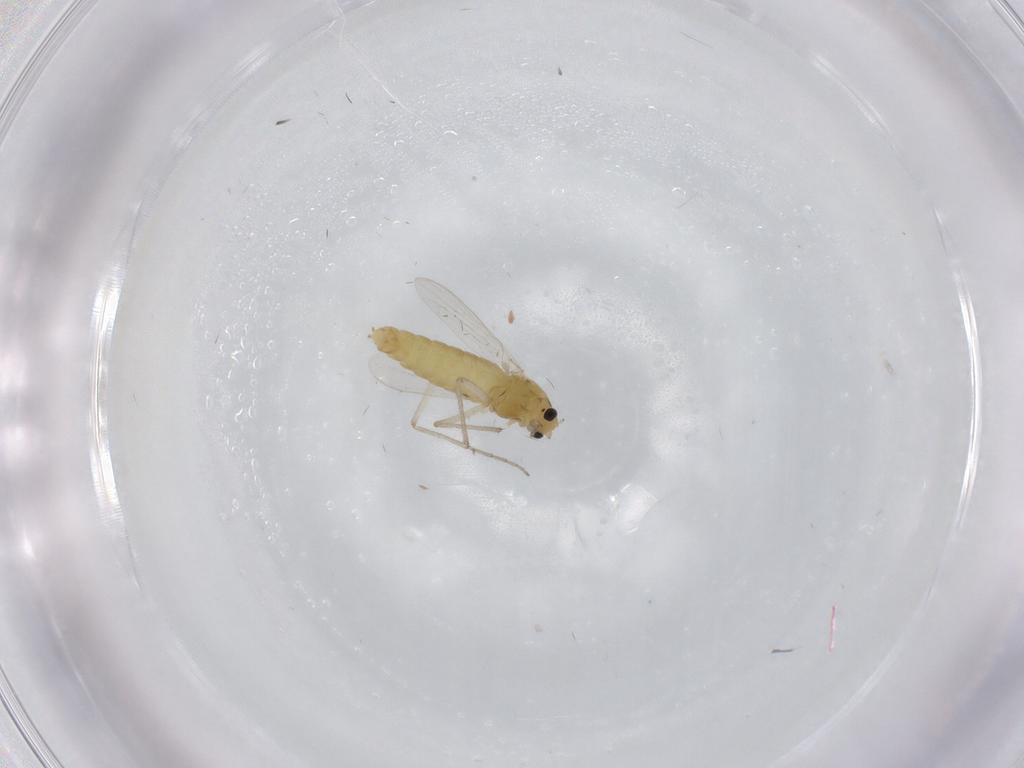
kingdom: Animalia
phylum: Arthropoda
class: Insecta
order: Diptera
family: Chironomidae
